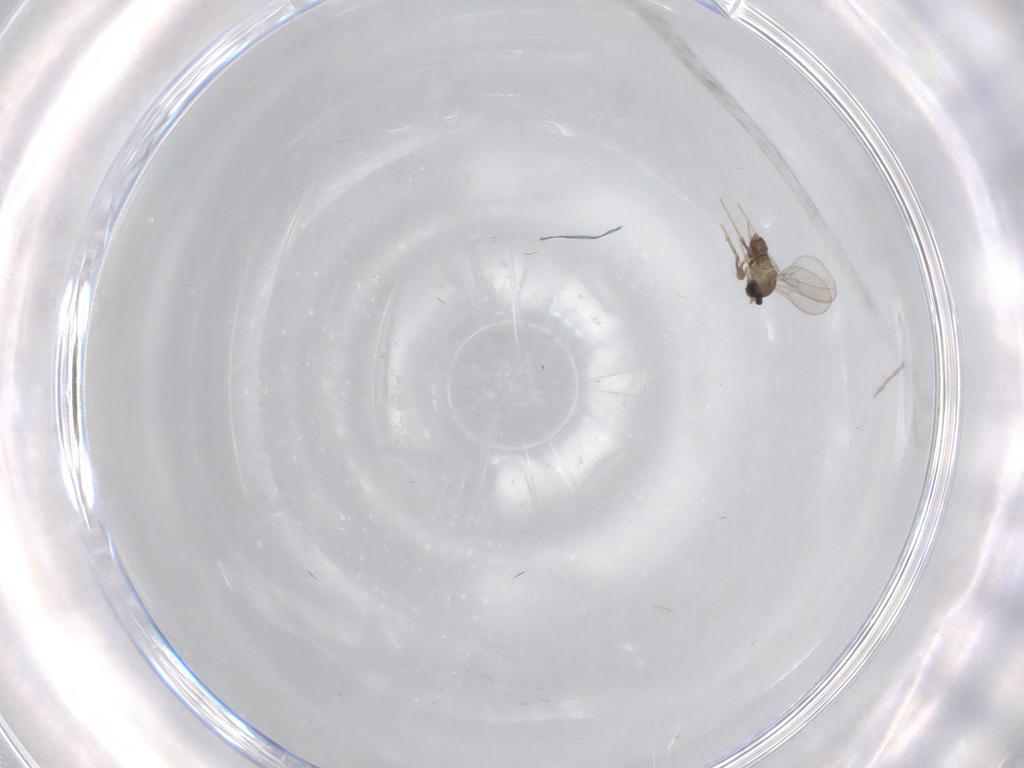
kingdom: Animalia
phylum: Arthropoda
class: Insecta
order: Diptera
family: Cecidomyiidae
